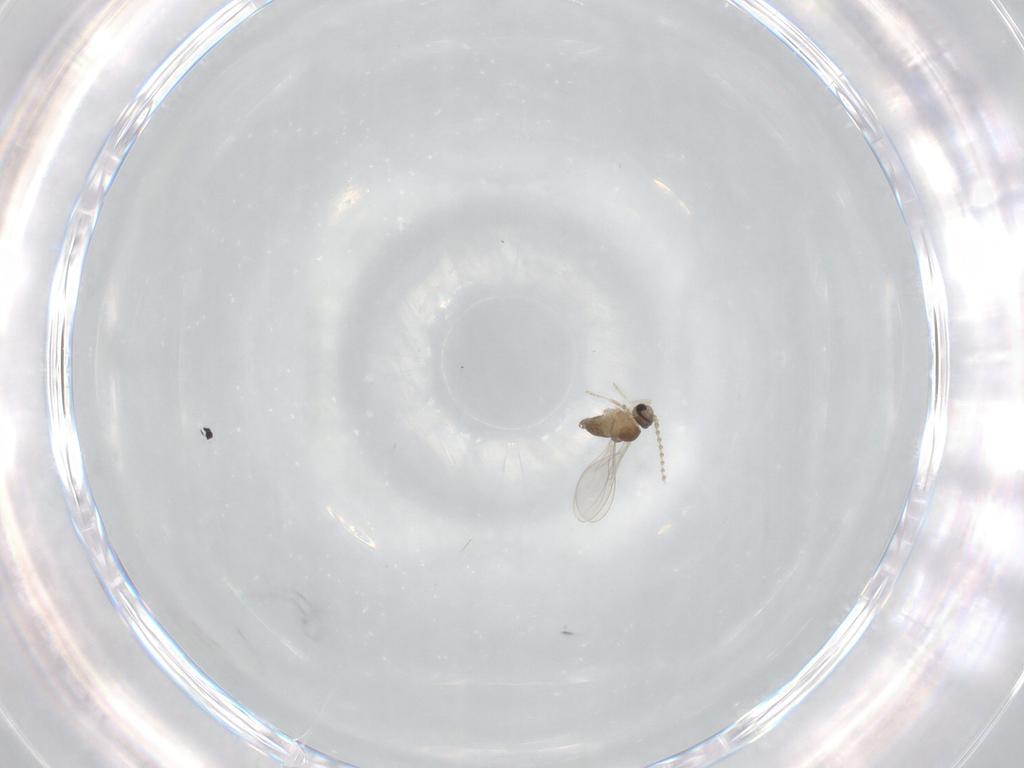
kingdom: Animalia
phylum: Arthropoda
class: Insecta
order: Diptera
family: Cecidomyiidae
